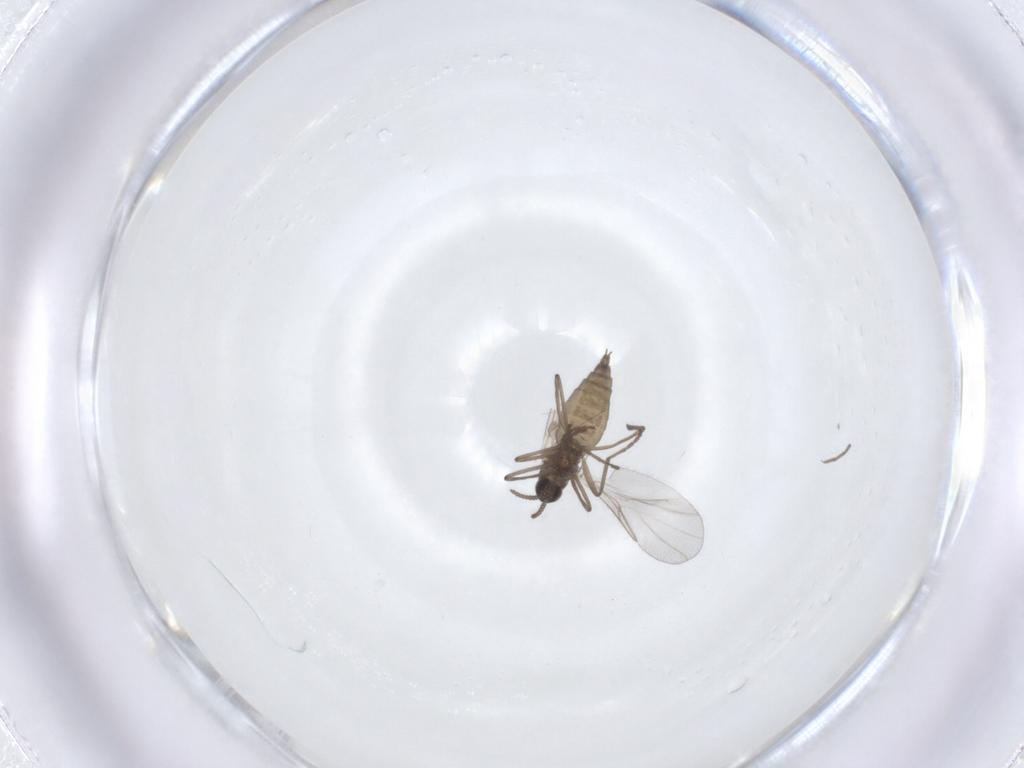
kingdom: Animalia
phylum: Arthropoda
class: Insecta
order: Diptera
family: Cecidomyiidae
